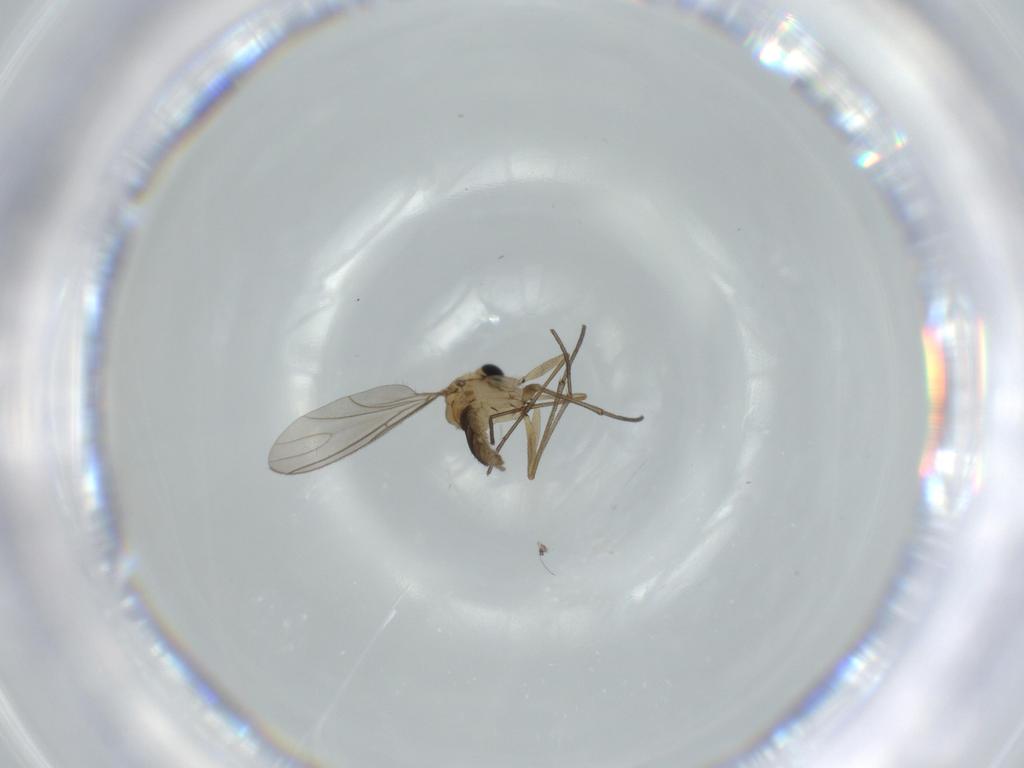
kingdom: Animalia
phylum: Arthropoda
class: Insecta
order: Diptera
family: Sciaridae
